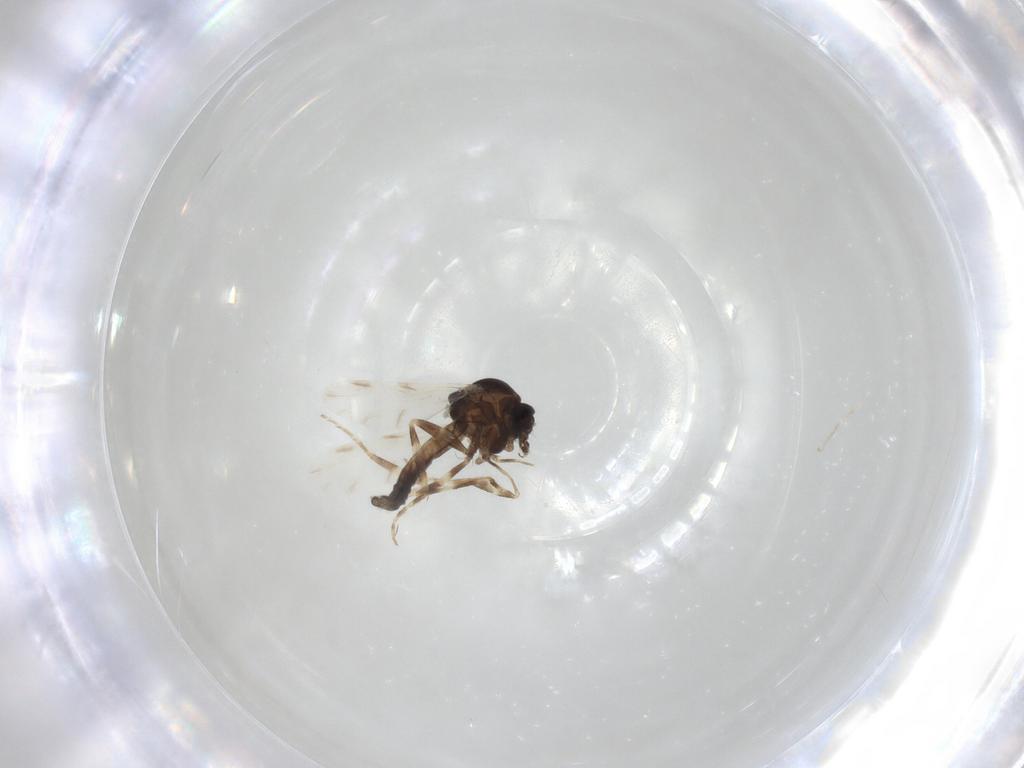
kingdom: Animalia
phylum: Arthropoda
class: Insecta
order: Diptera
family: Ceratopogonidae
